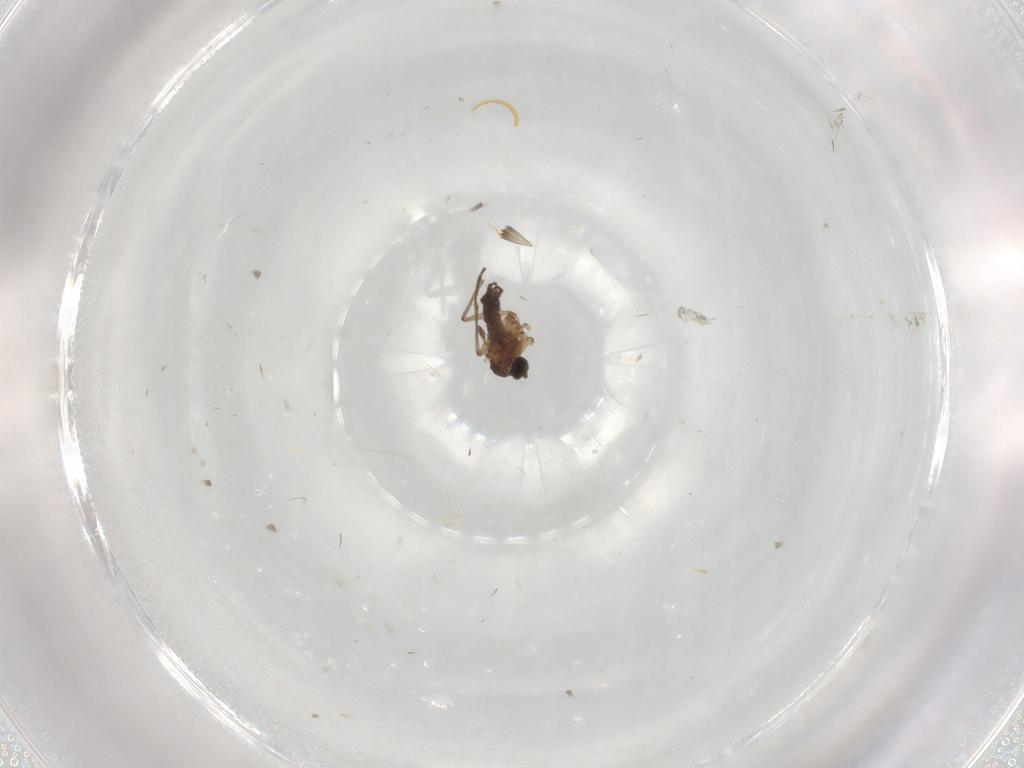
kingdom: Animalia
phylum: Arthropoda
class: Insecta
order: Diptera
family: Sciaridae
